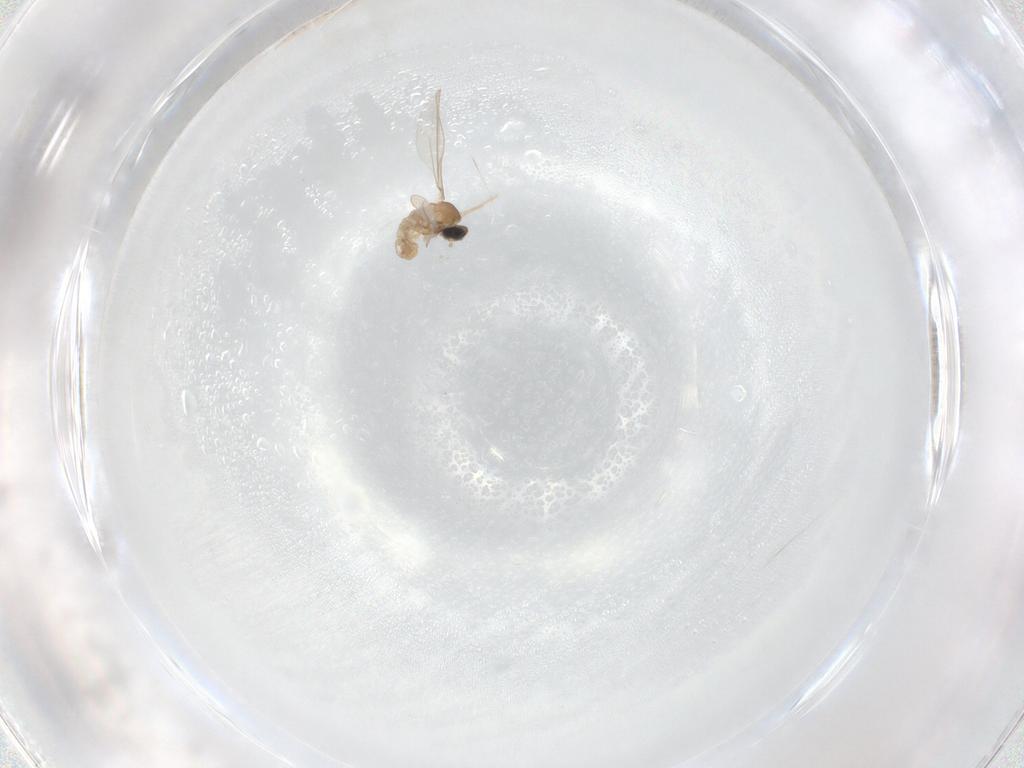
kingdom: Animalia
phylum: Arthropoda
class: Insecta
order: Diptera
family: Cecidomyiidae
